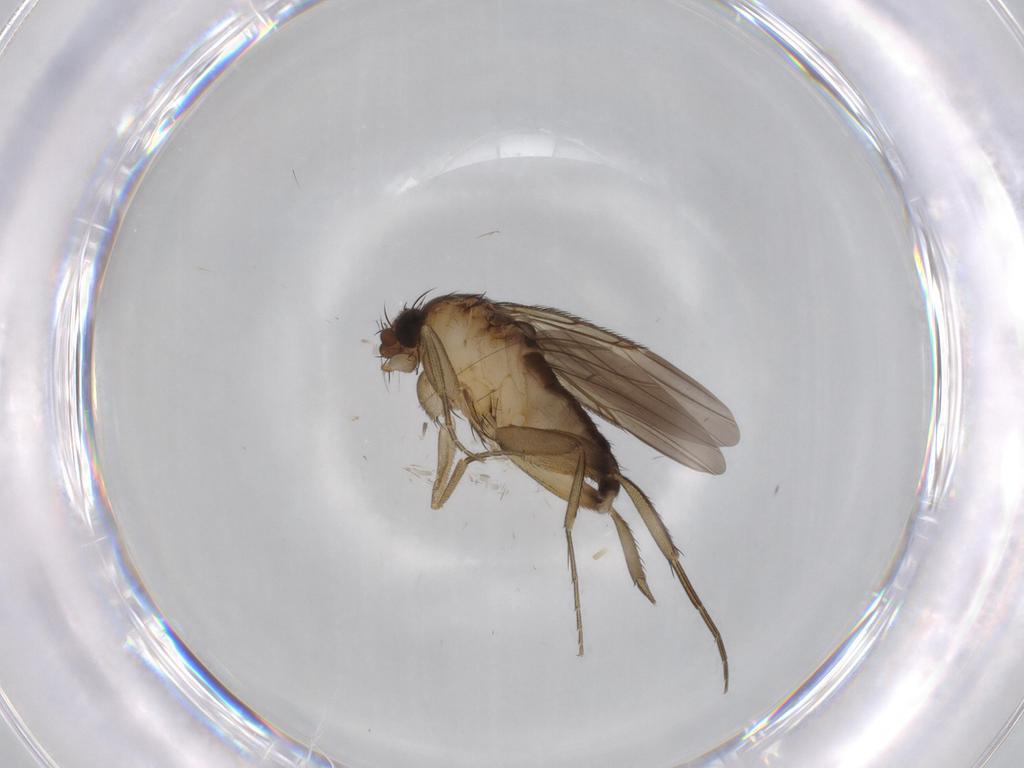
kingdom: Animalia
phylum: Arthropoda
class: Insecta
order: Diptera
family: Phoridae
